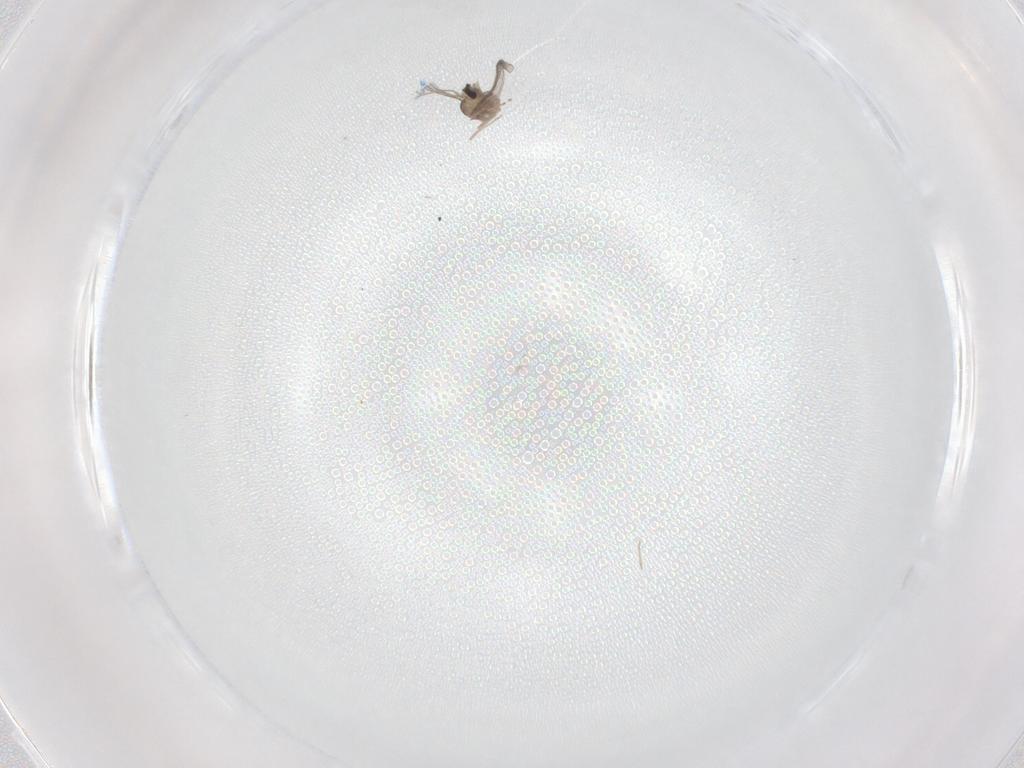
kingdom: Animalia
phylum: Arthropoda
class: Insecta
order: Diptera
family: Cecidomyiidae
